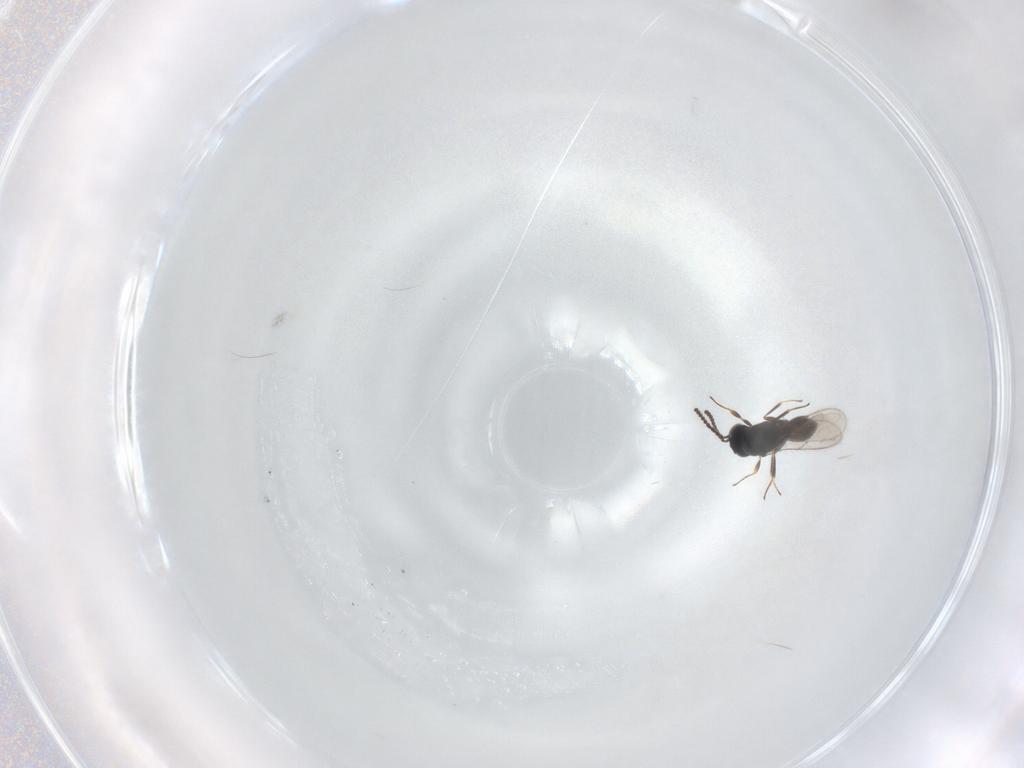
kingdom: Animalia
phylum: Arthropoda
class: Insecta
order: Hymenoptera
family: Scelionidae
